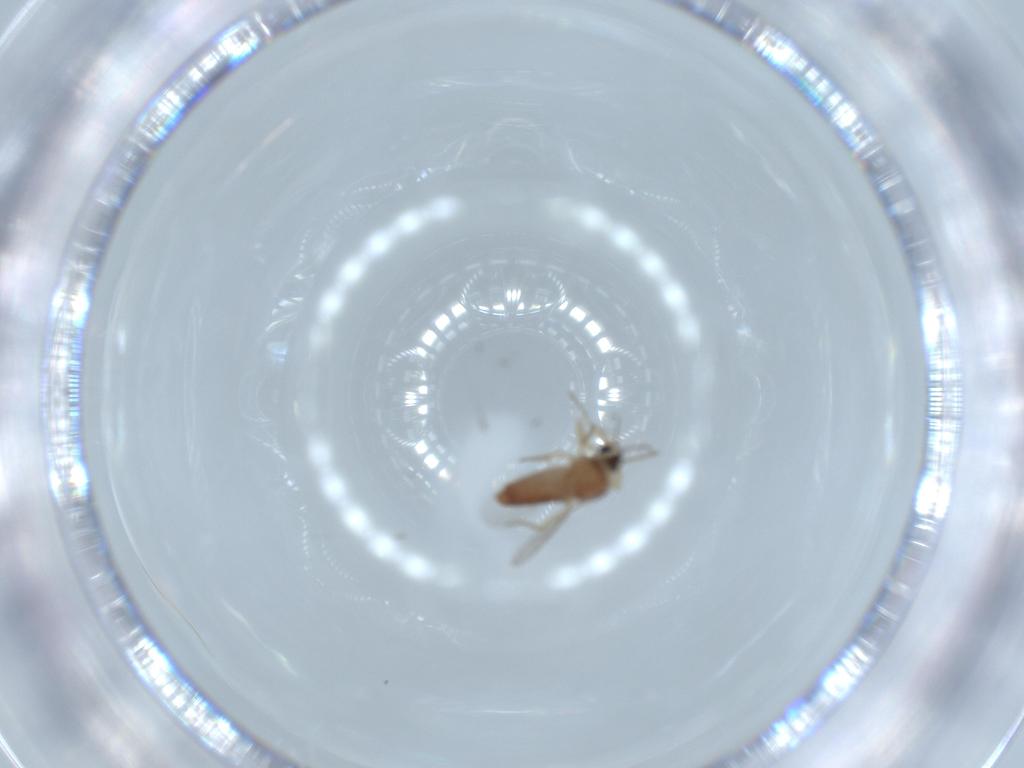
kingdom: Animalia
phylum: Arthropoda
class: Insecta
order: Diptera
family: Ceratopogonidae
